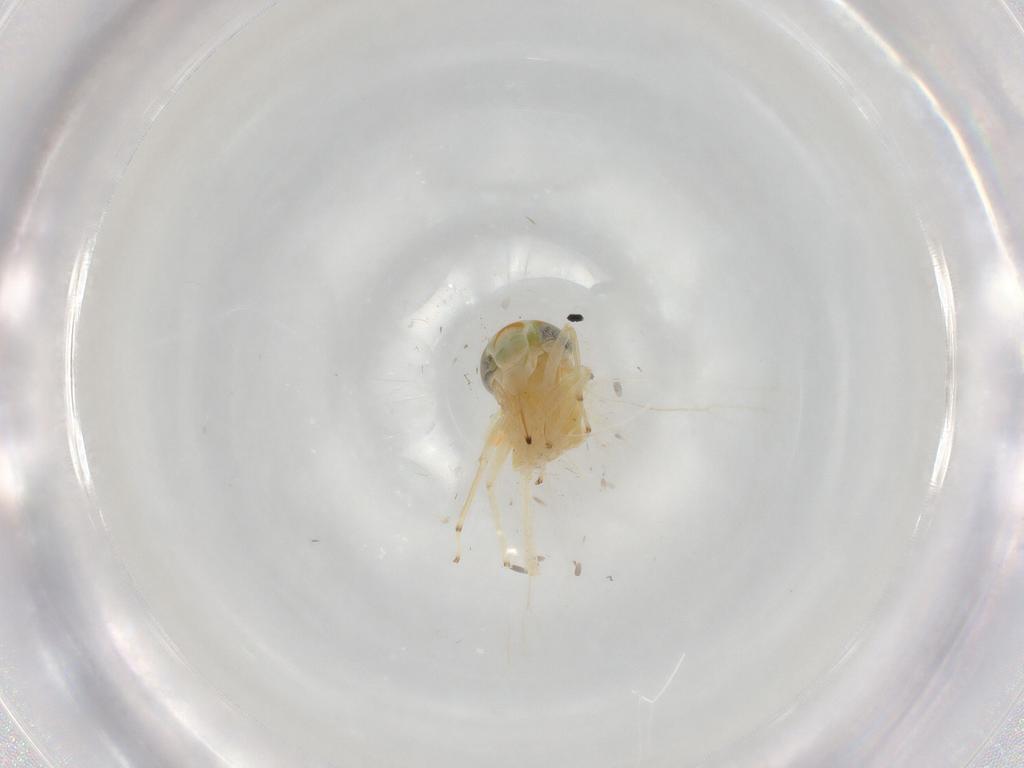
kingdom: Animalia
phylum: Arthropoda
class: Insecta
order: Hemiptera
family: Cicadellidae
